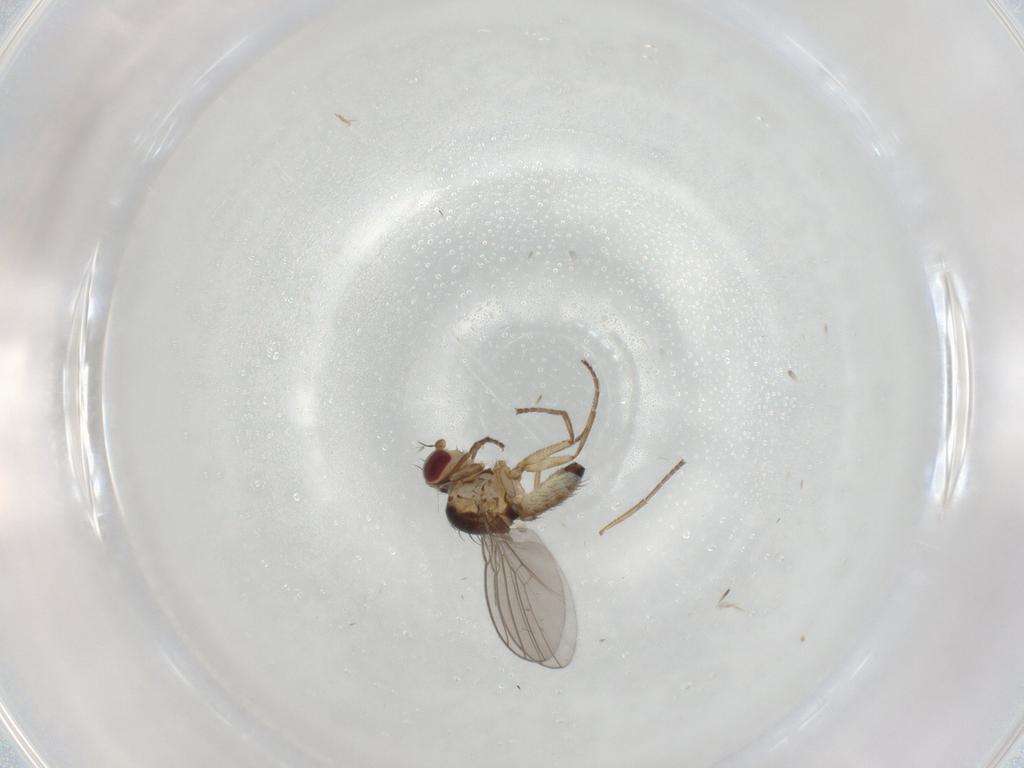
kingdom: Animalia
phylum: Arthropoda
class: Insecta
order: Diptera
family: Agromyzidae
